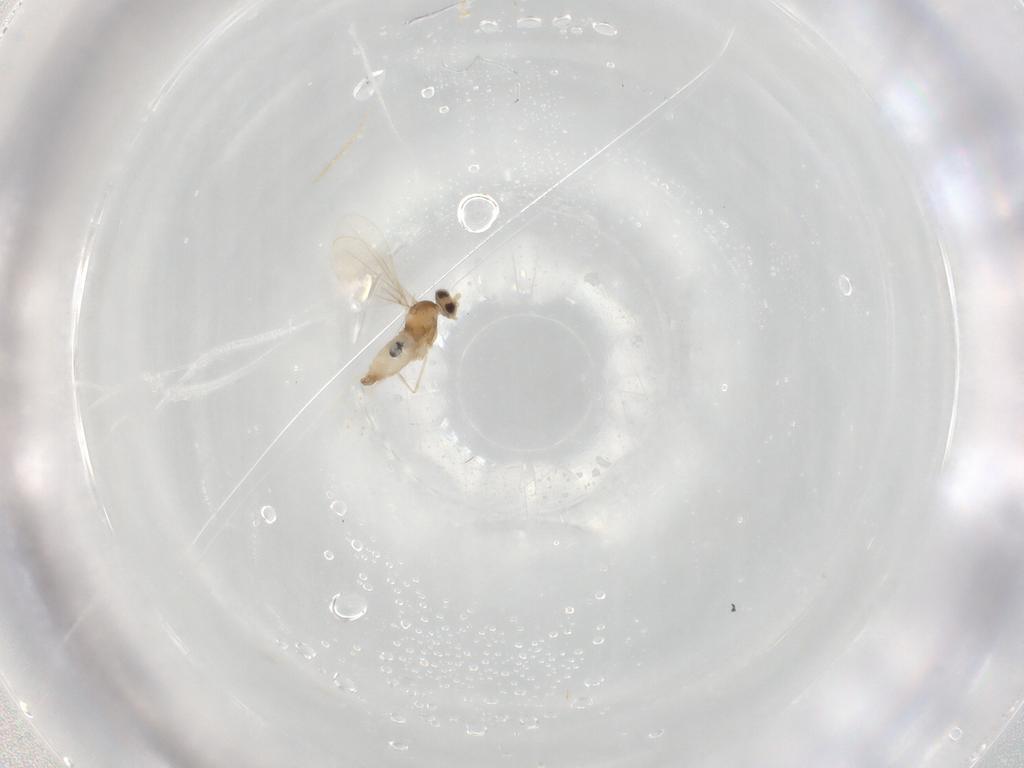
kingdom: Animalia
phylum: Arthropoda
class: Insecta
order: Diptera
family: Cecidomyiidae
